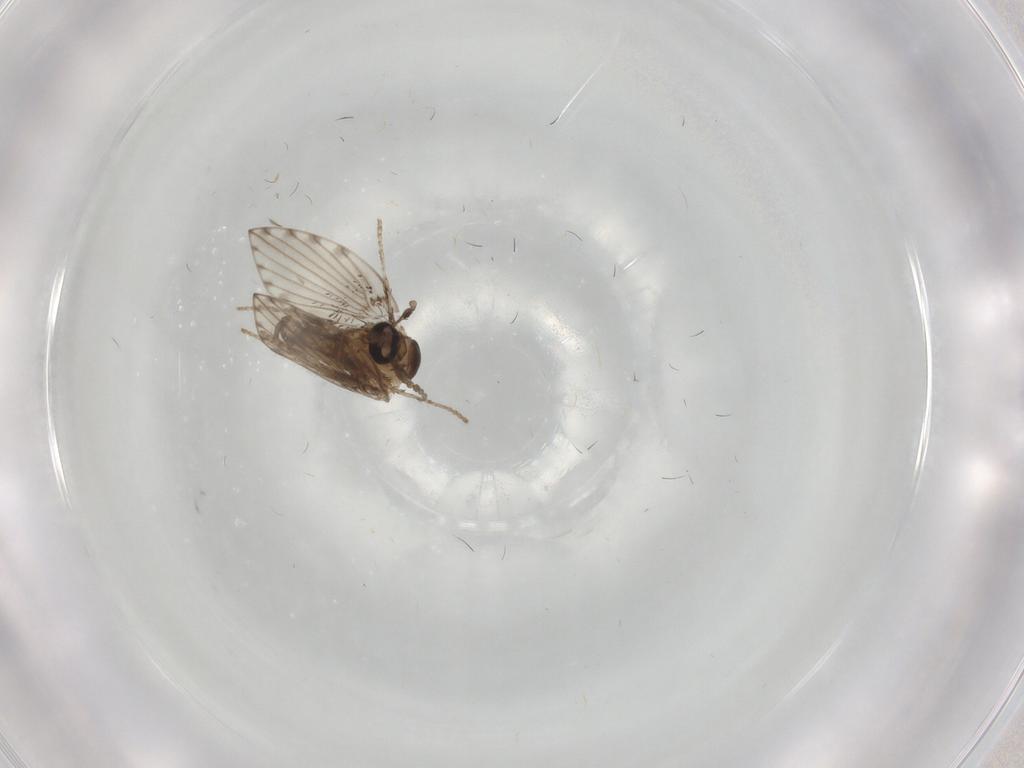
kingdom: Animalia
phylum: Arthropoda
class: Insecta
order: Diptera
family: Psychodidae
